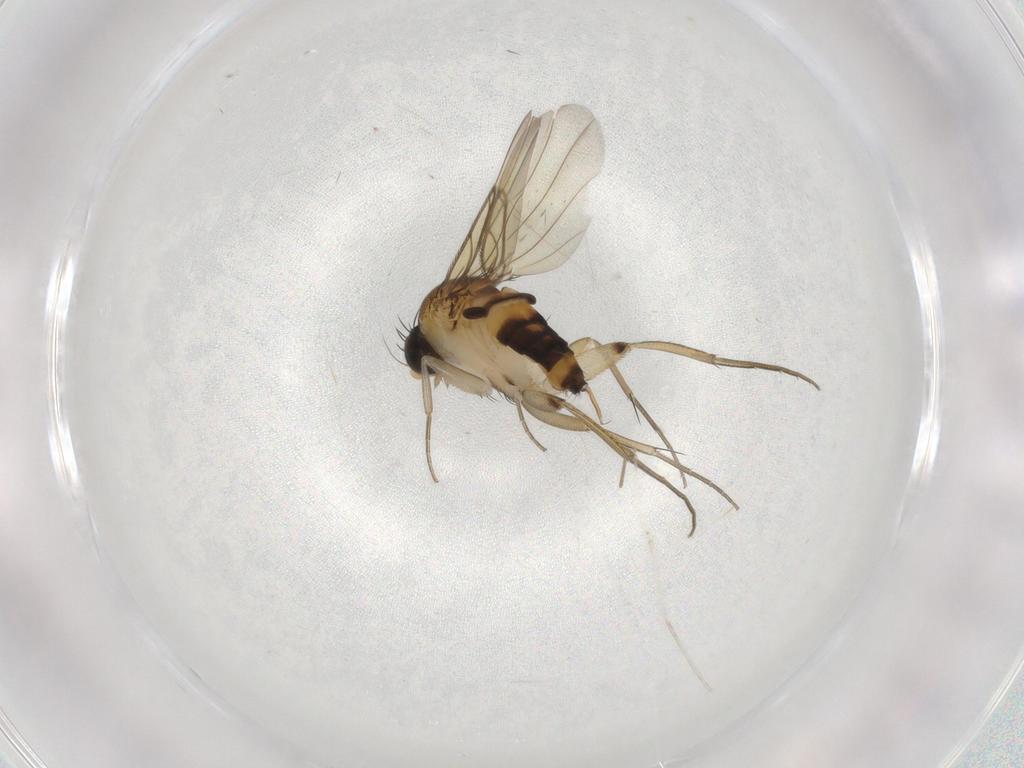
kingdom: Animalia
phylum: Arthropoda
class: Insecta
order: Diptera
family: Phoridae
